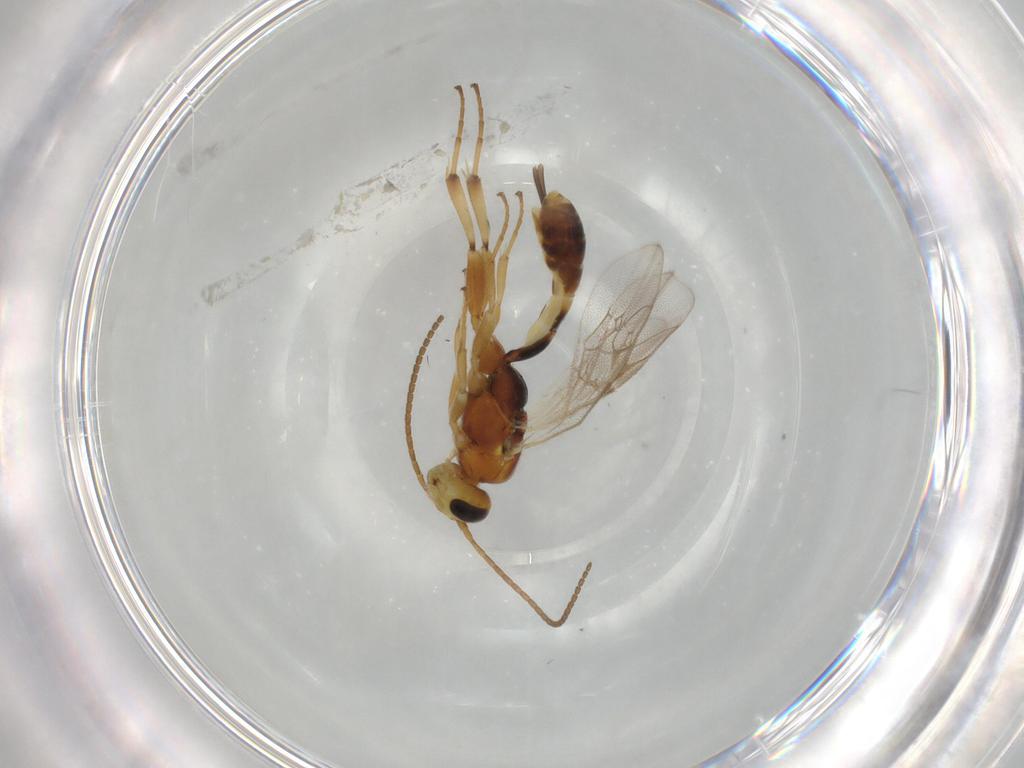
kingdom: Animalia
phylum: Arthropoda
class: Insecta
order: Hymenoptera
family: Ichneumonidae
